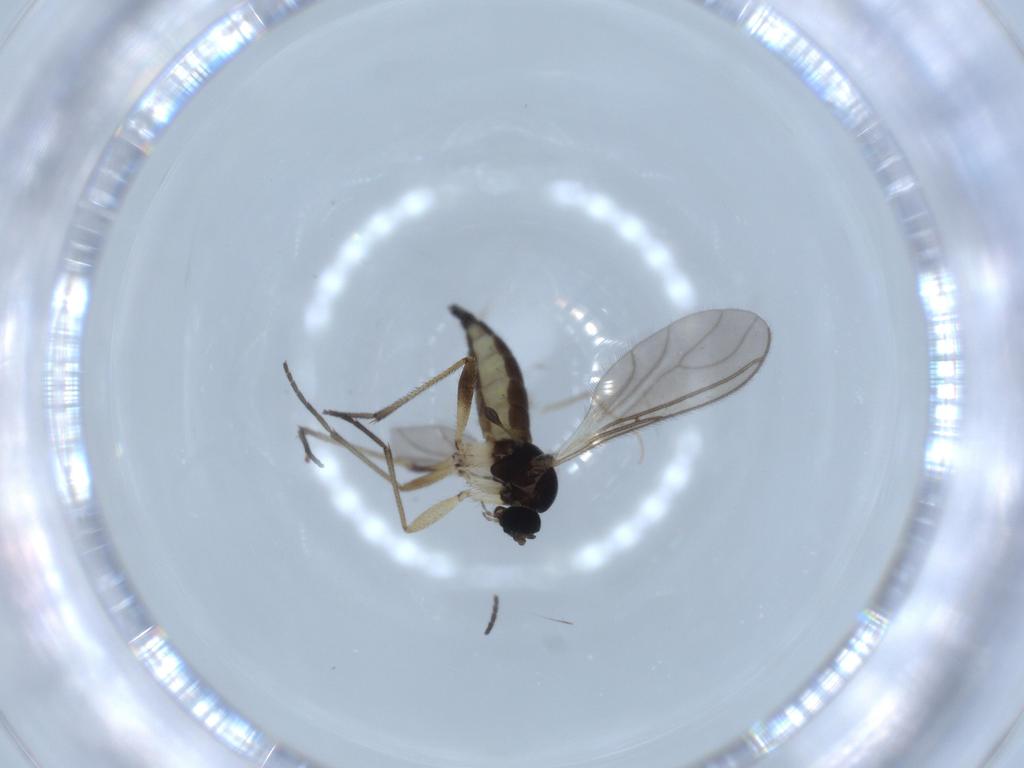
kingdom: Animalia
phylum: Arthropoda
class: Insecta
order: Diptera
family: Sciaridae
